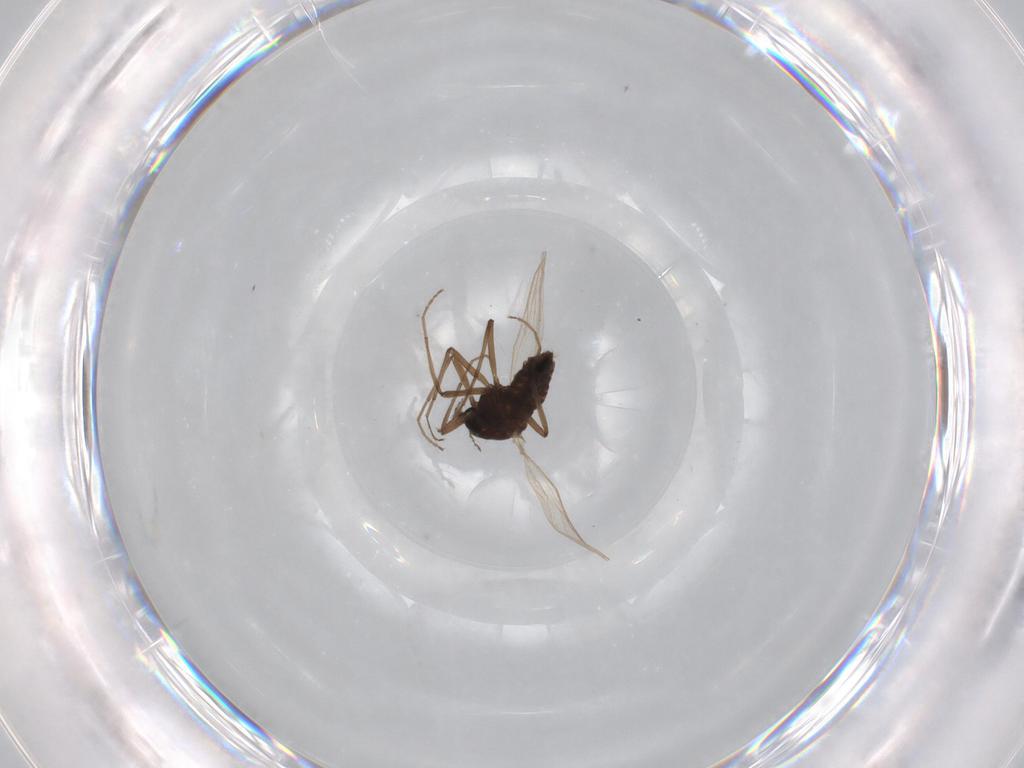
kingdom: Animalia
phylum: Arthropoda
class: Insecta
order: Diptera
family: Chironomidae
